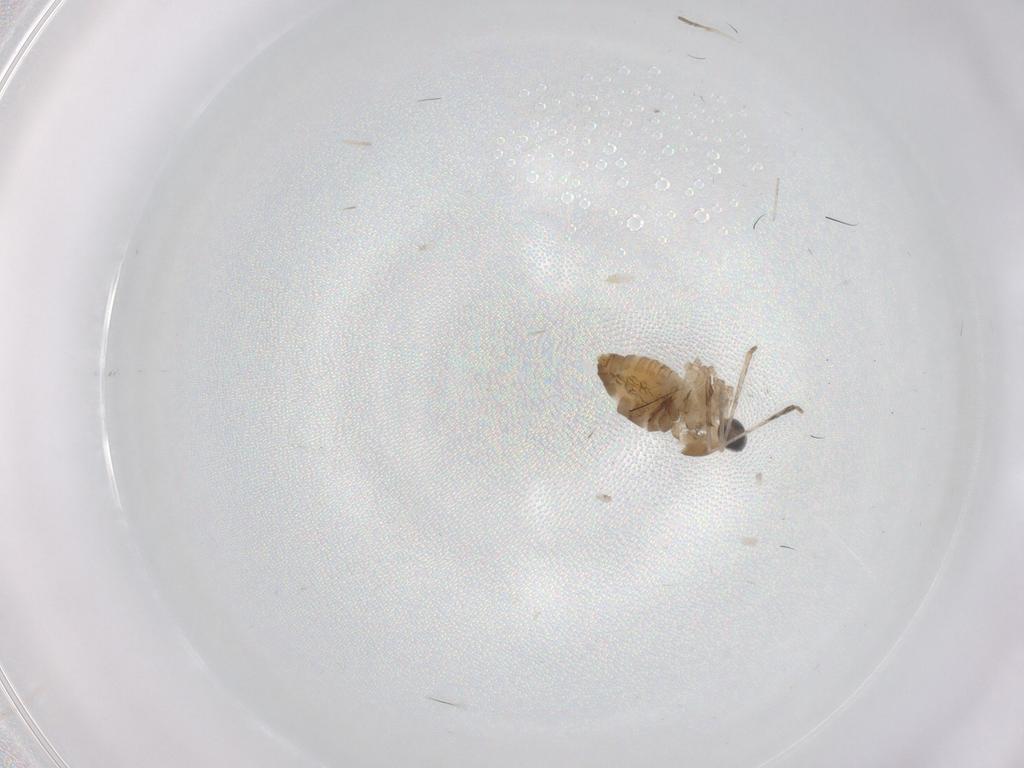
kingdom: Animalia
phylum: Arthropoda
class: Insecta
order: Diptera
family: Cecidomyiidae
